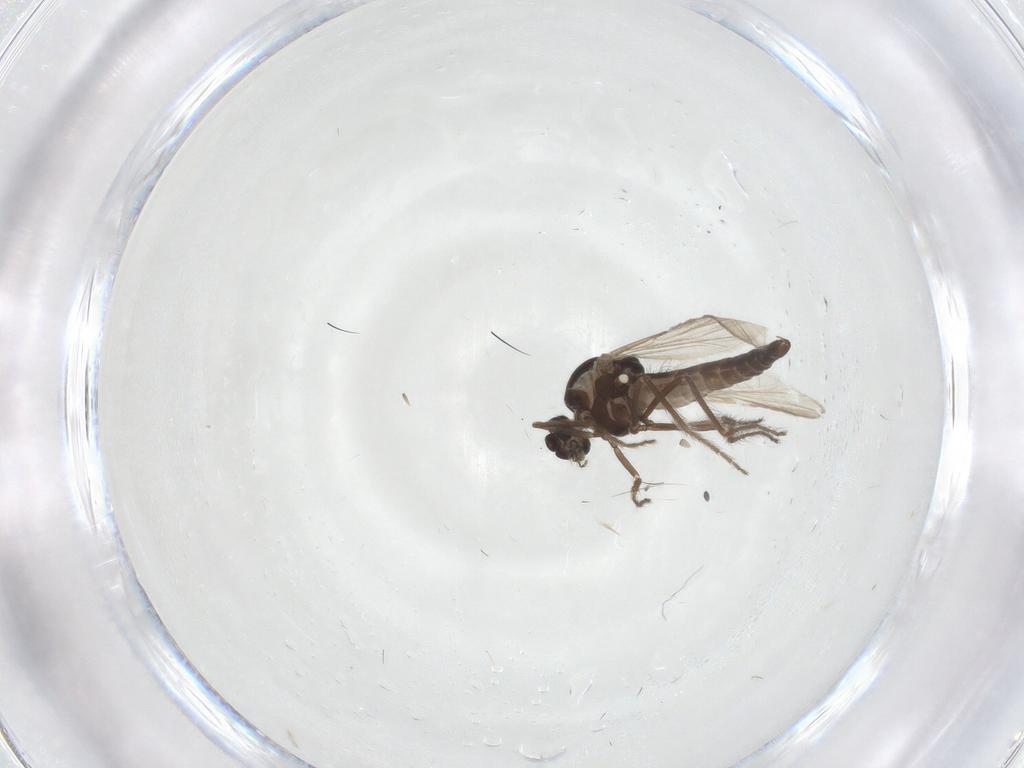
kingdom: Animalia
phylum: Arthropoda
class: Insecta
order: Diptera
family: Ceratopogonidae
